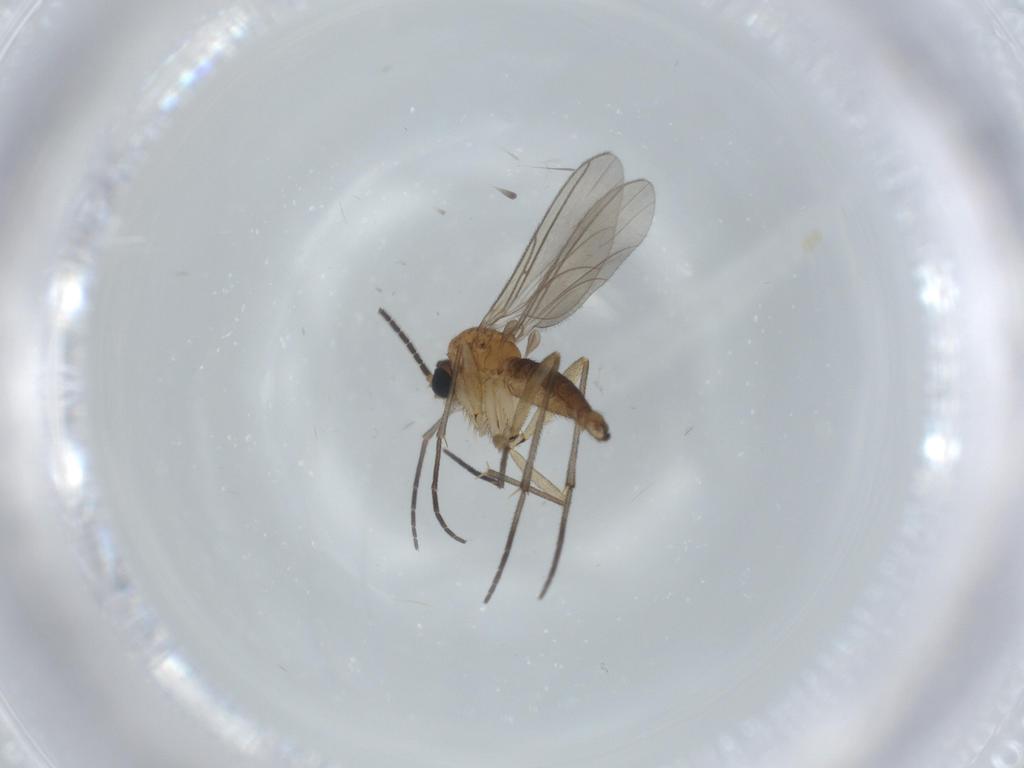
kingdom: Animalia
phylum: Arthropoda
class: Insecta
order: Diptera
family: Sciaridae
